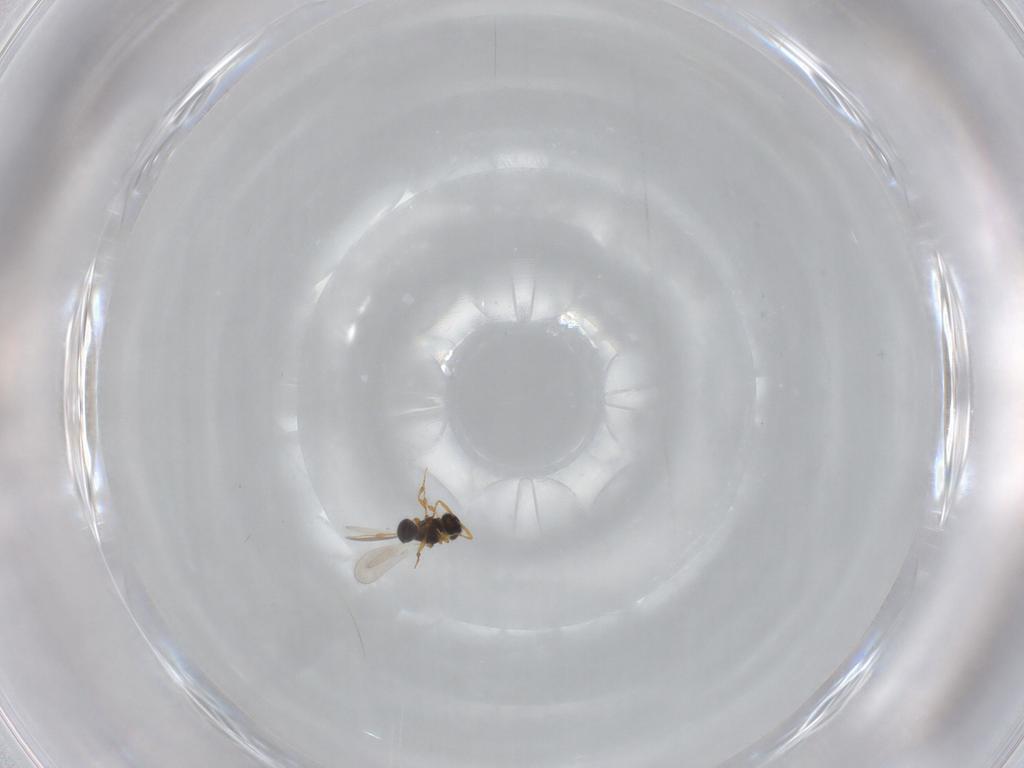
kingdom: Animalia
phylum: Arthropoda
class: Insecta
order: Hymenoptera
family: Platygastridae
